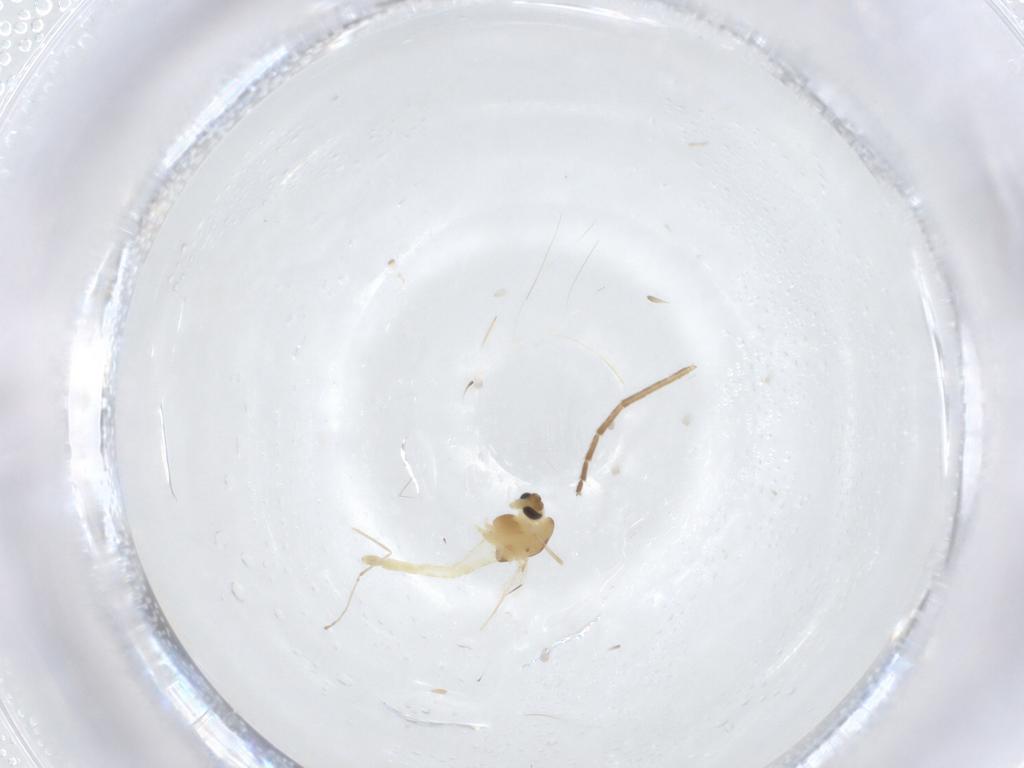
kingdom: Animalia
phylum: Arthropoda
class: Insecta
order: Diptera
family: Chironomidae
